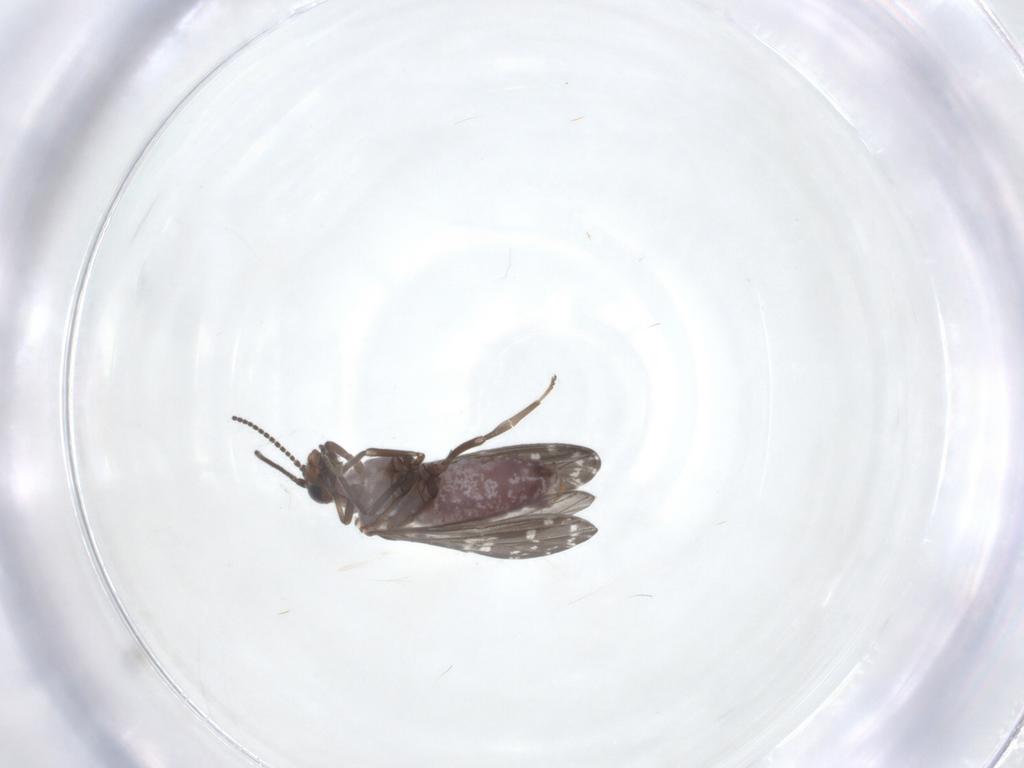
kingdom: Animalia
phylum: Arthropoda
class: Insecta
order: Neuroptera
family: Coniopterygidae
